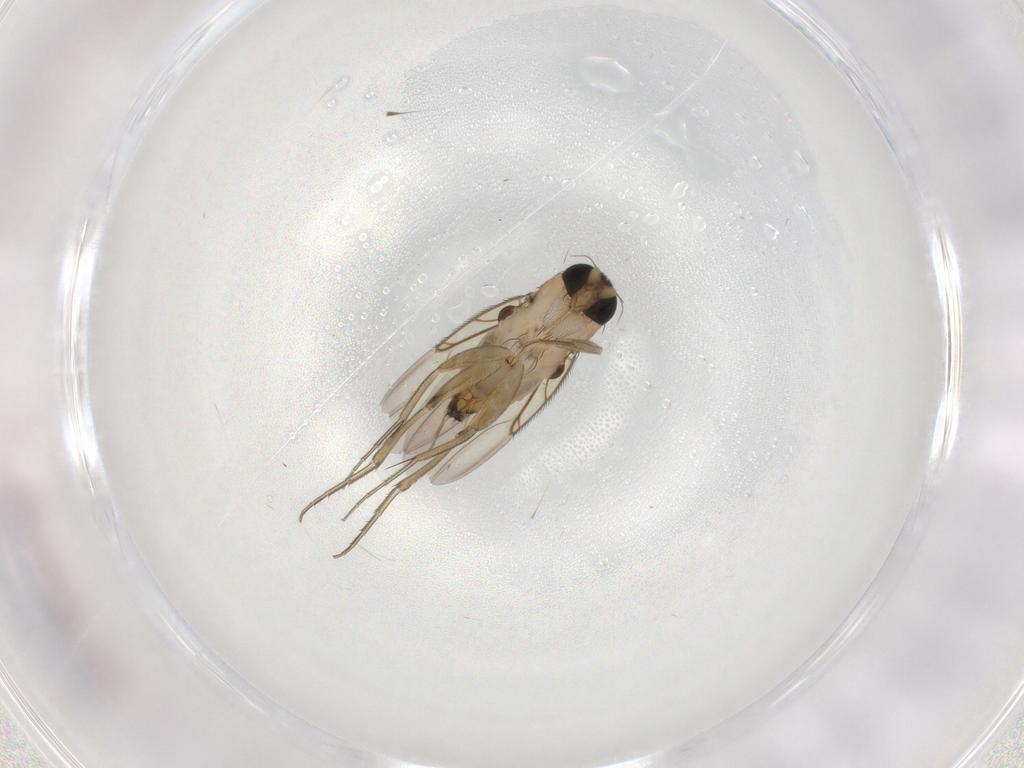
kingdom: Animalia
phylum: Arthropoda
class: Insecta
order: Diptera
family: Phoridae
